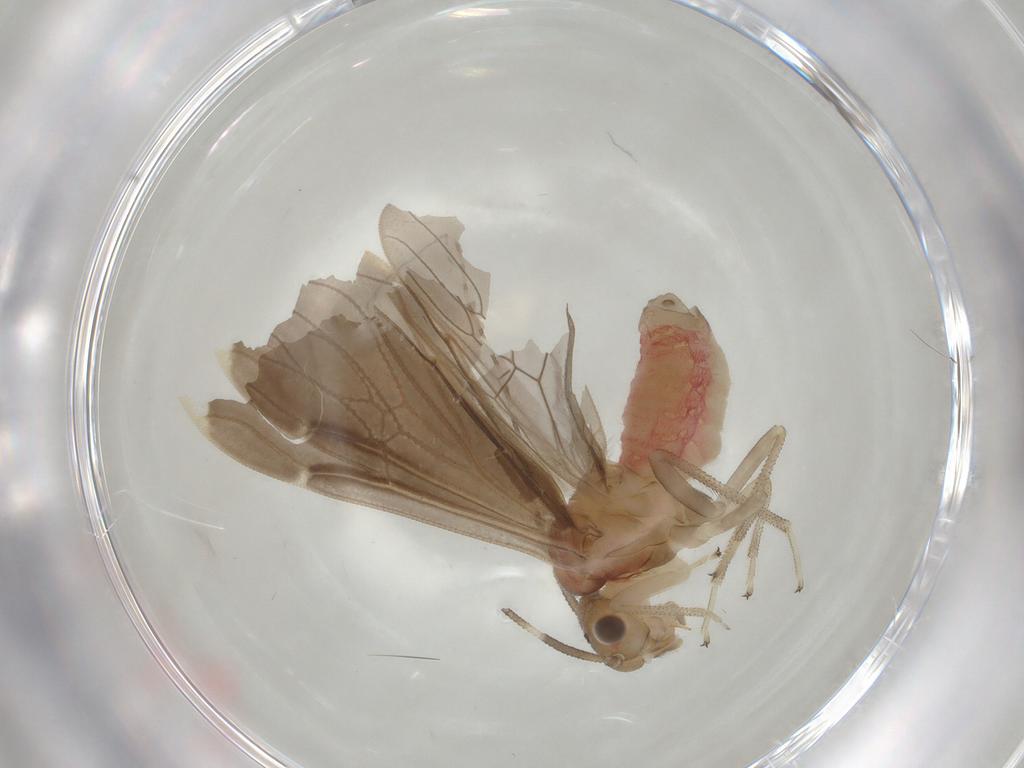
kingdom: Animalia
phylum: Arthropoda
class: Insecta
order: Psocodea
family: Amphipsocidae
